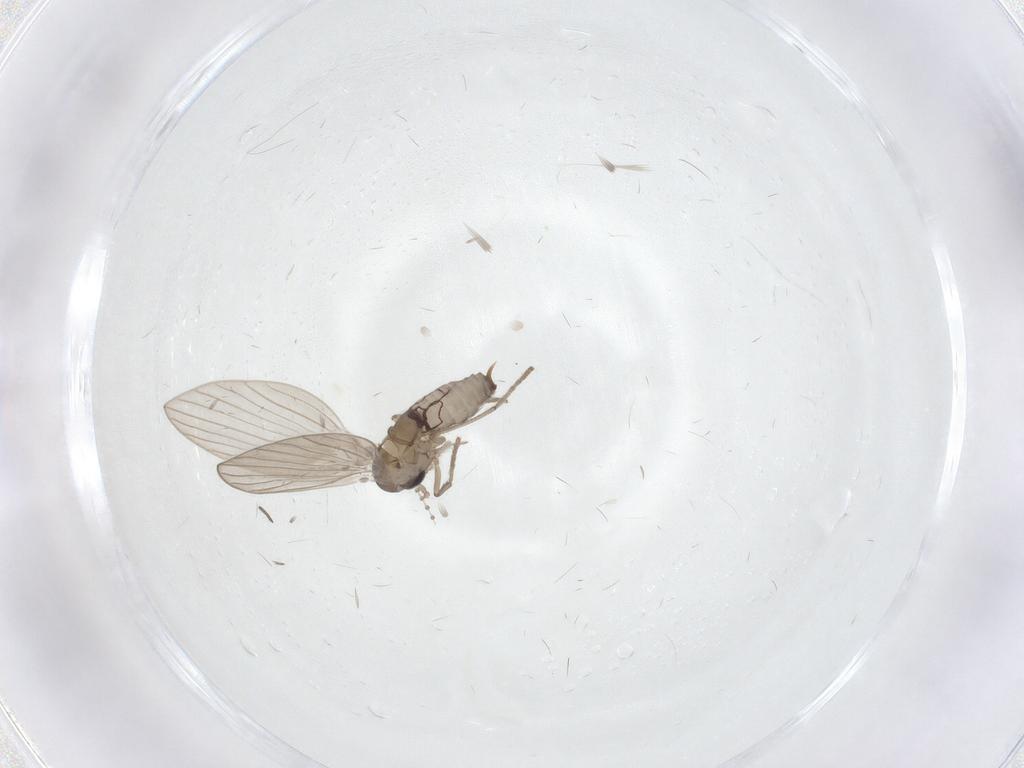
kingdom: Animalia
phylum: Arthropoda
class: Insecta
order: Diptera
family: Psychodidae
